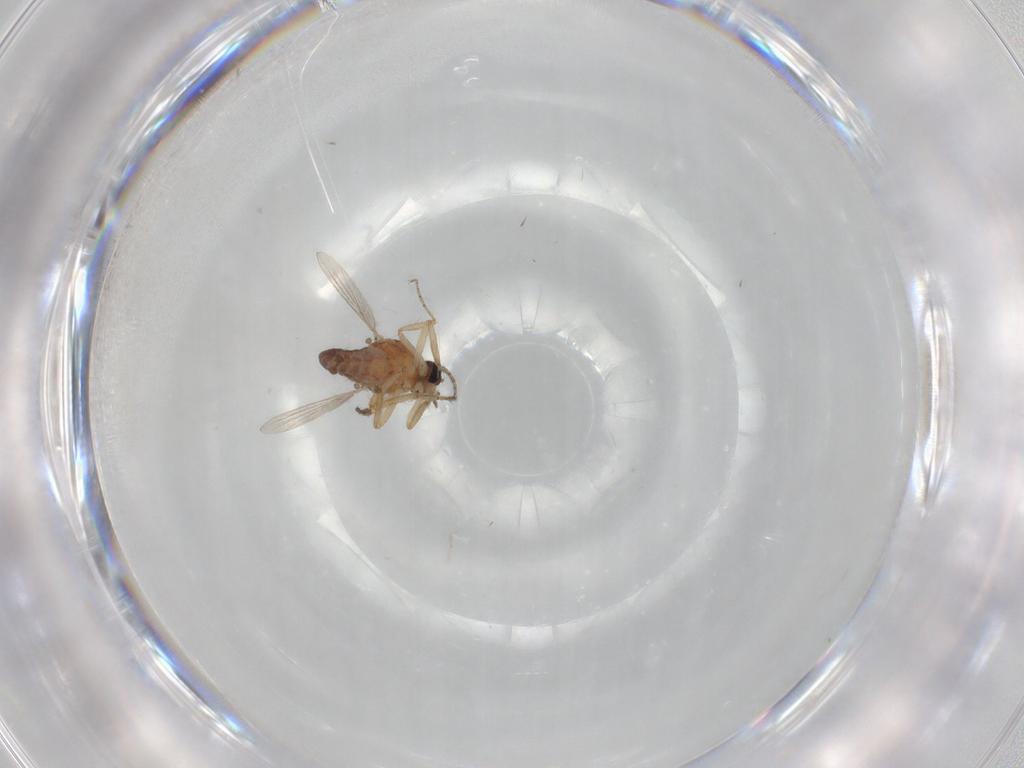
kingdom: Animalia
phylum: Arthropoda
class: Insecta
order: Diptera
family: Ceratopogonidae
